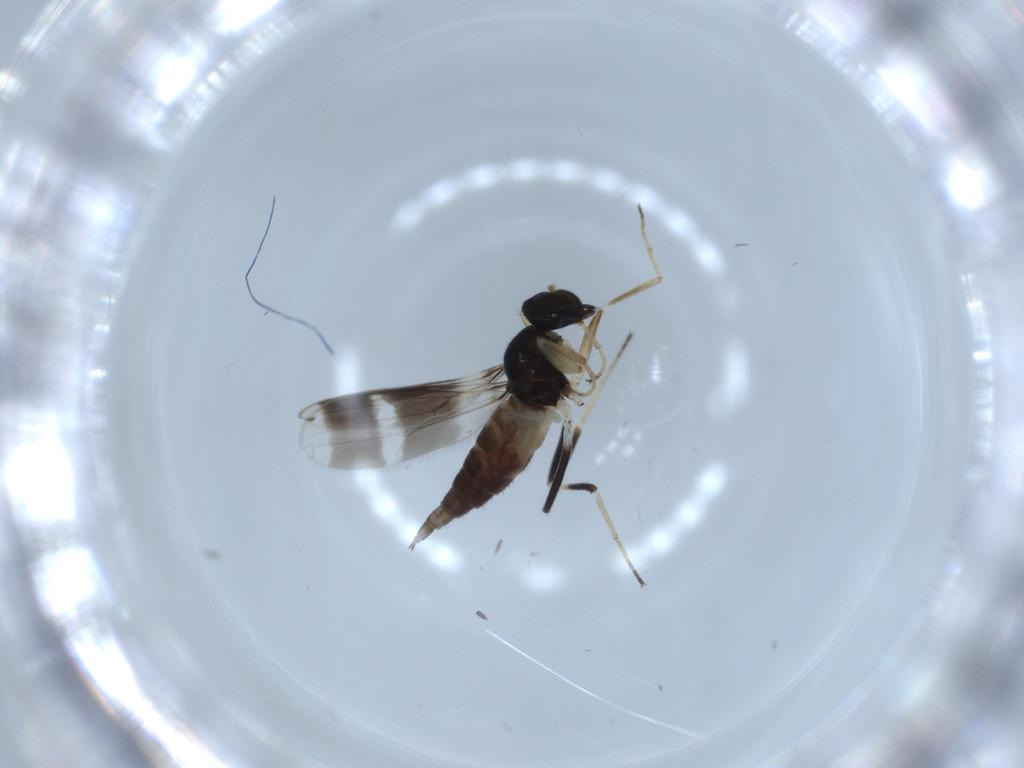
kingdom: Animalia
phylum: Arthropoda
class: Insecta
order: Diptera
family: Hybotidae
